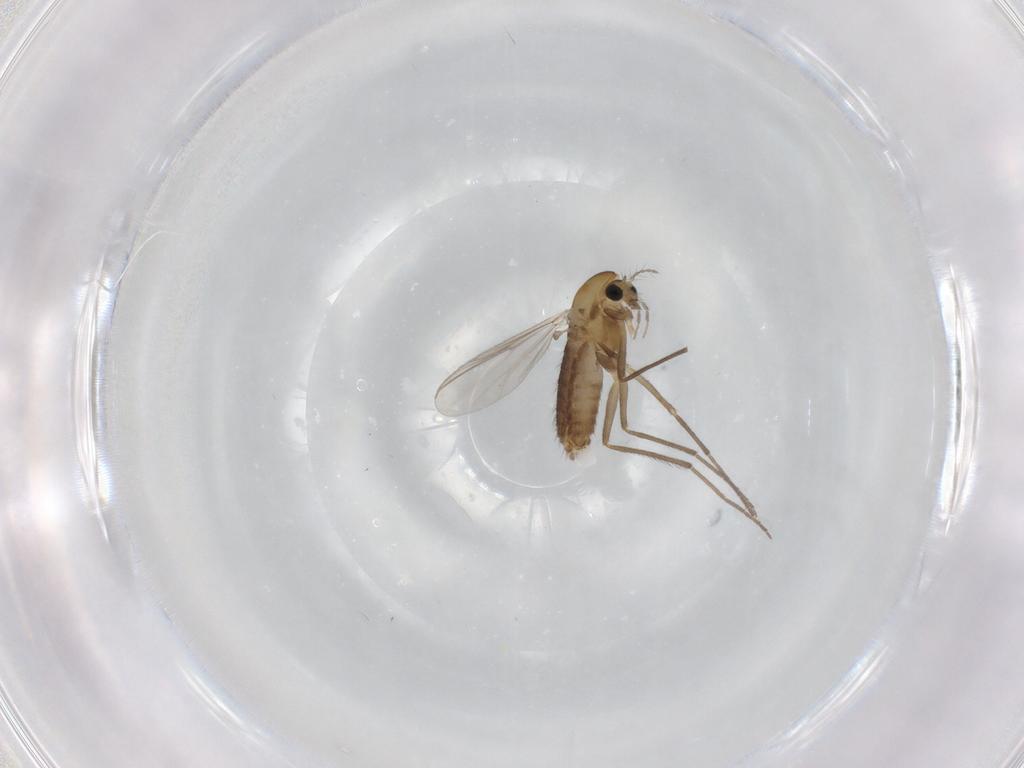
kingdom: Animalia
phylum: Arthropoda
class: Insecta
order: Diptera
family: Chironomidae
